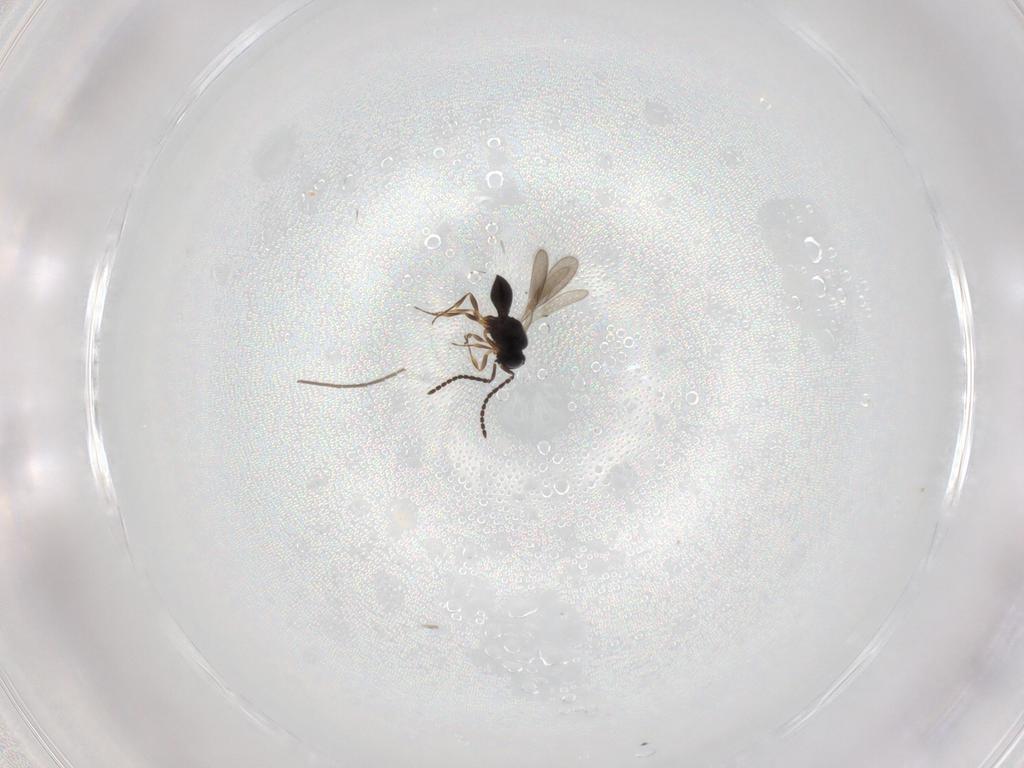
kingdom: Animalia
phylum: Arthropoda
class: Insecta
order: Hymenoptera
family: Scelionidae
